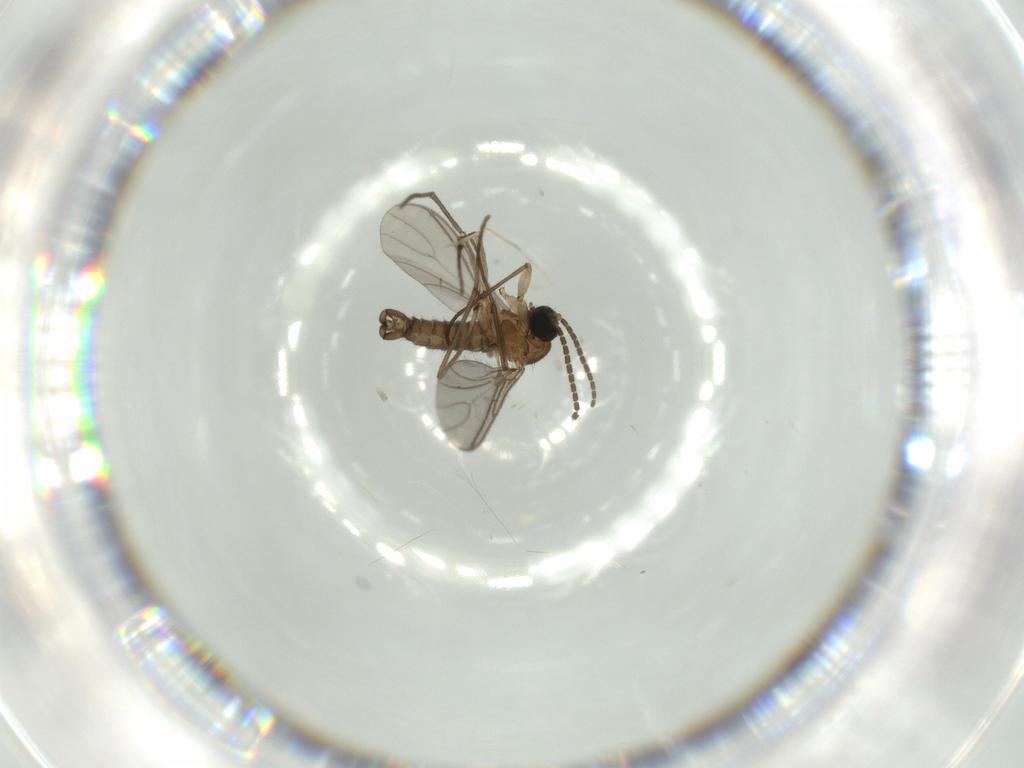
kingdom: Animalia
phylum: Arthropoda
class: Insecta
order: Diptera
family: Sciaridae
